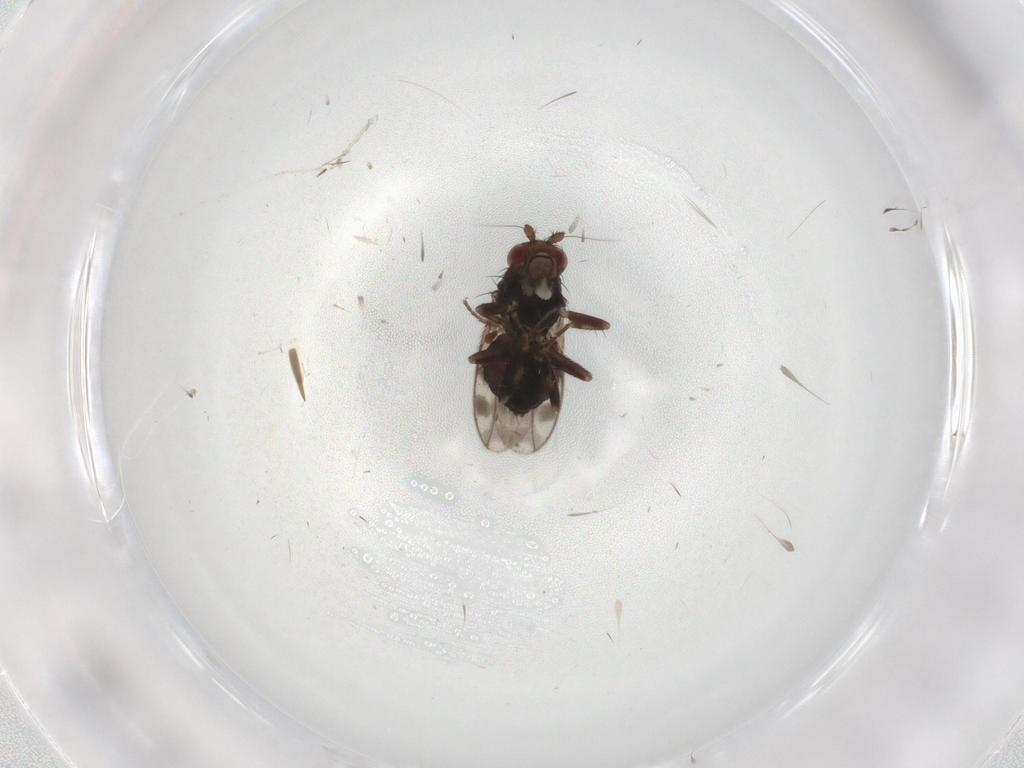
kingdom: Animalia
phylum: Arthropoda
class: Insecta
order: Diptera
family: Sphaeroceridae
